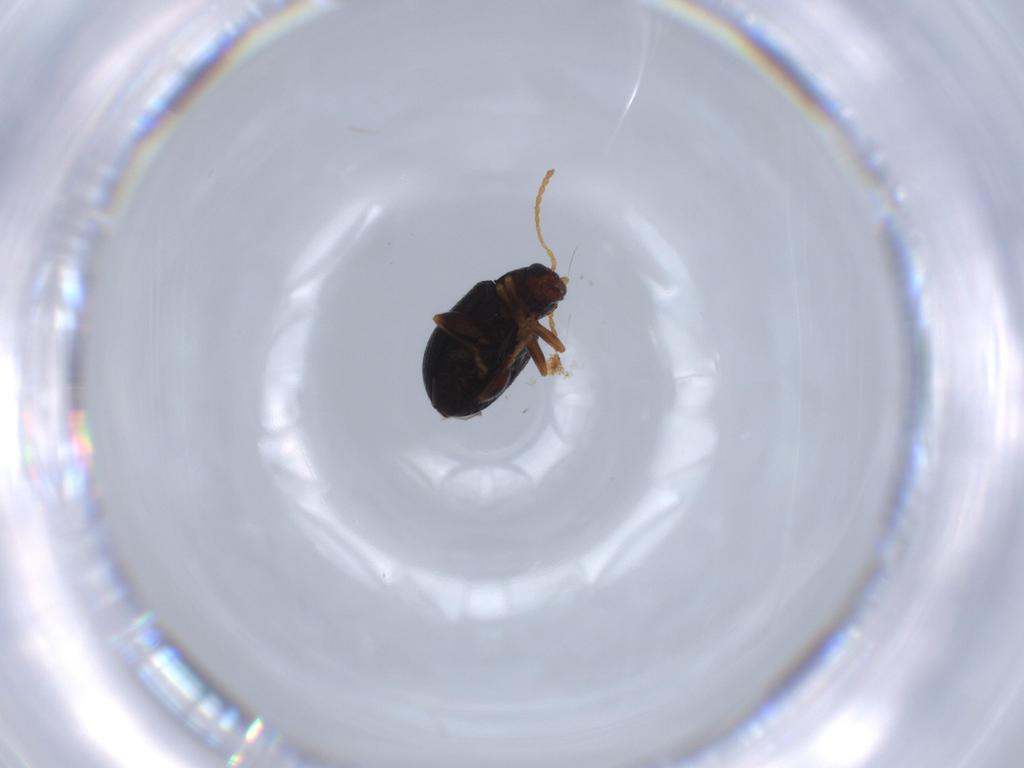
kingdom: Animalia
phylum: Arthropoda
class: Insecta
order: Coleoptera
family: Chrysomelidae
